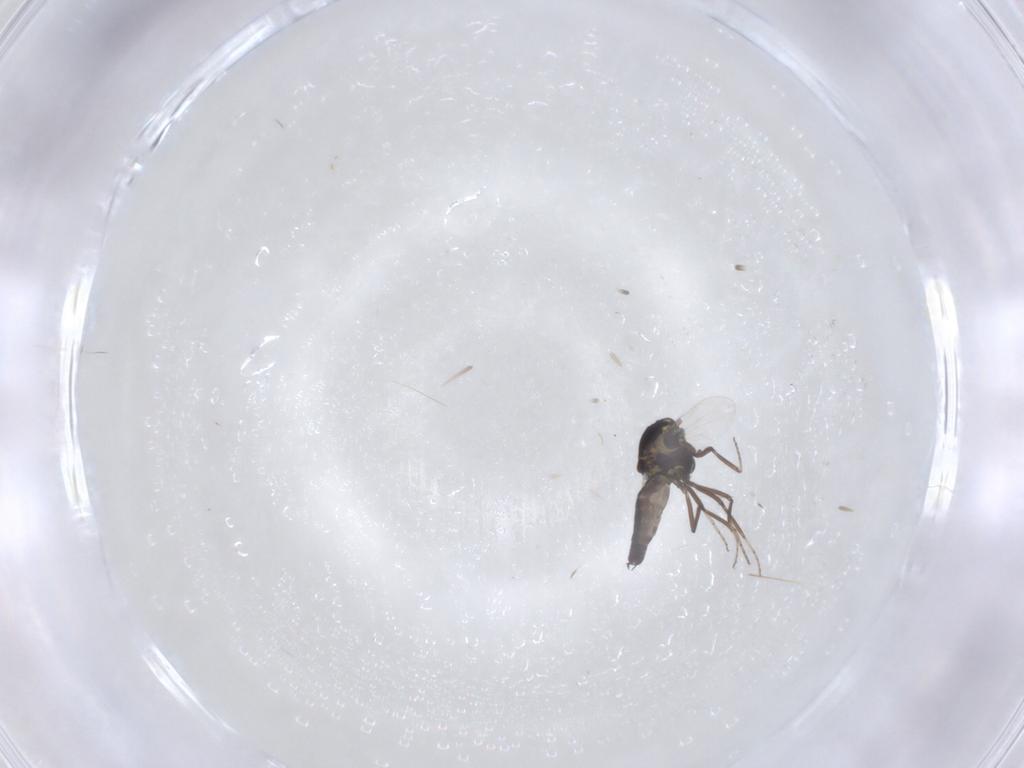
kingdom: Animalia
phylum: Arthropoda
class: Insecta
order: Diptera
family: Ceratopogonidae
